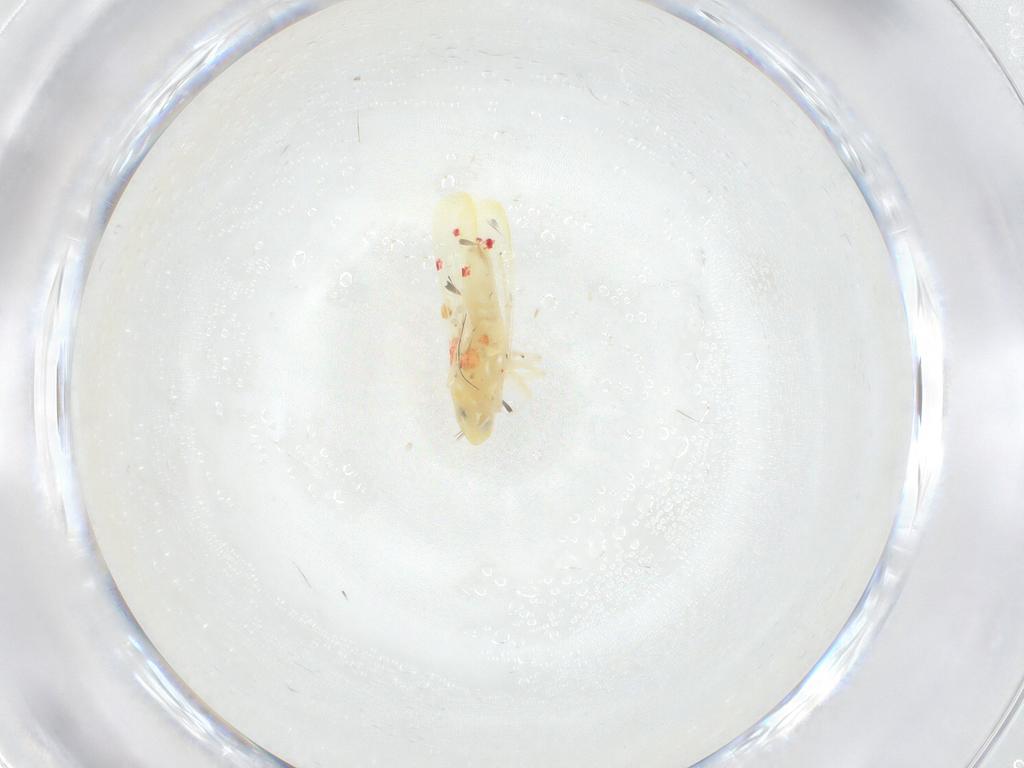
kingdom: Animalia
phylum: Arthropoda
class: Insecta
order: Hemiptera
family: Cicadellidae
